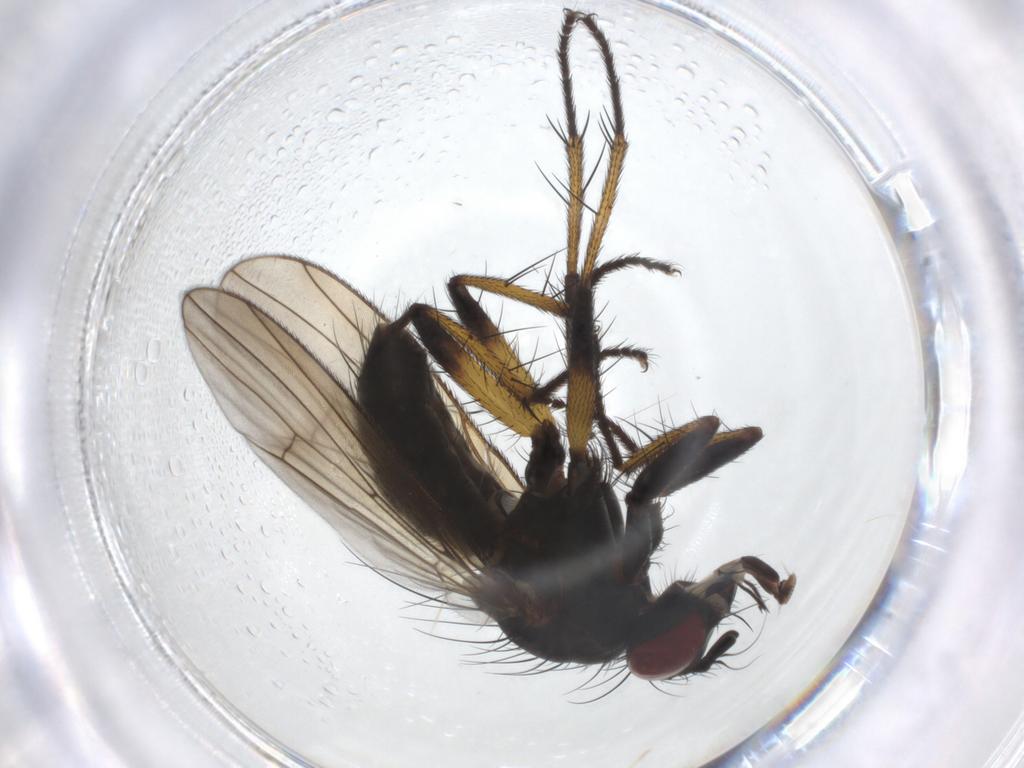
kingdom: Animalia
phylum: Arthropoda
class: Insecta
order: Diptera
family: Muscidae
